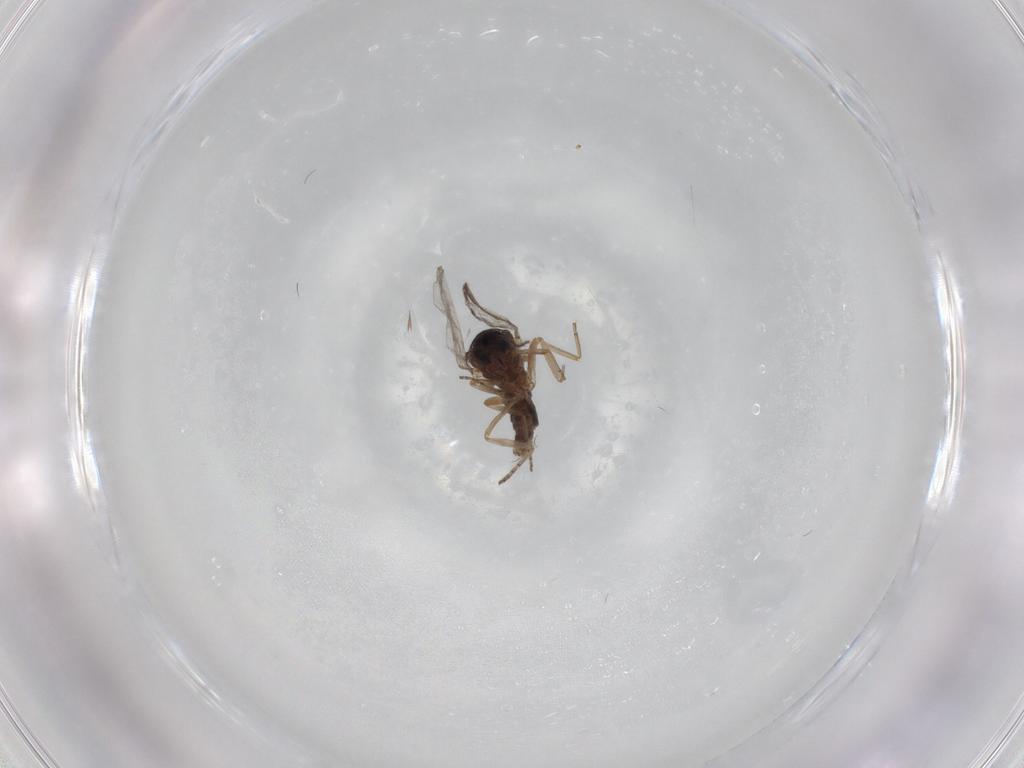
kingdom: Animalia
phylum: Arthropoda
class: Insecta
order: Diptera
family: Ceratopogonidae
